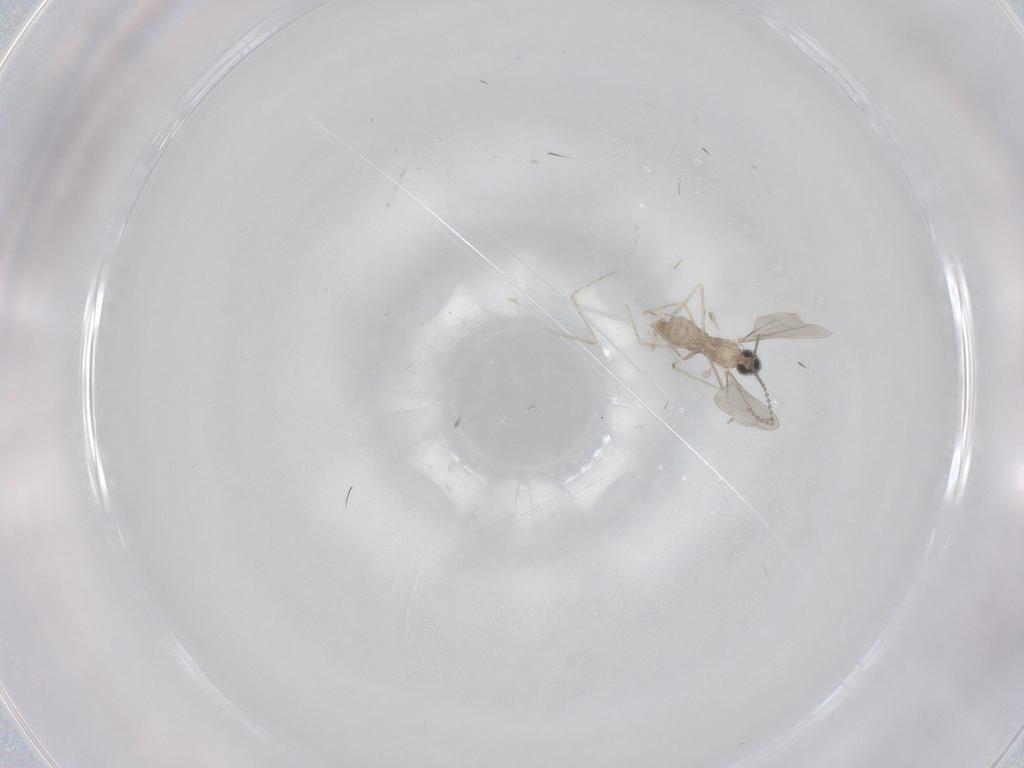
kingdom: Animalia
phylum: Arthropoda
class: Insecta
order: Diptera
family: Cecidomyiidae
